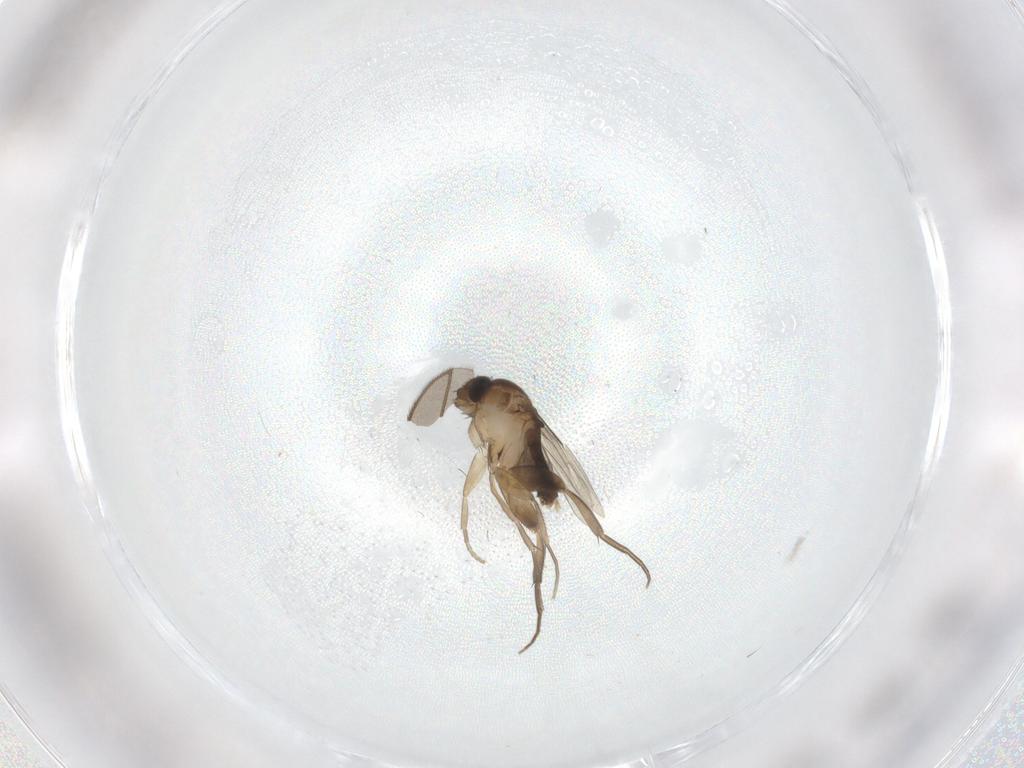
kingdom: Animalia
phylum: Arthropoda
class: Insecta
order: Diptera
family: Phoridae
